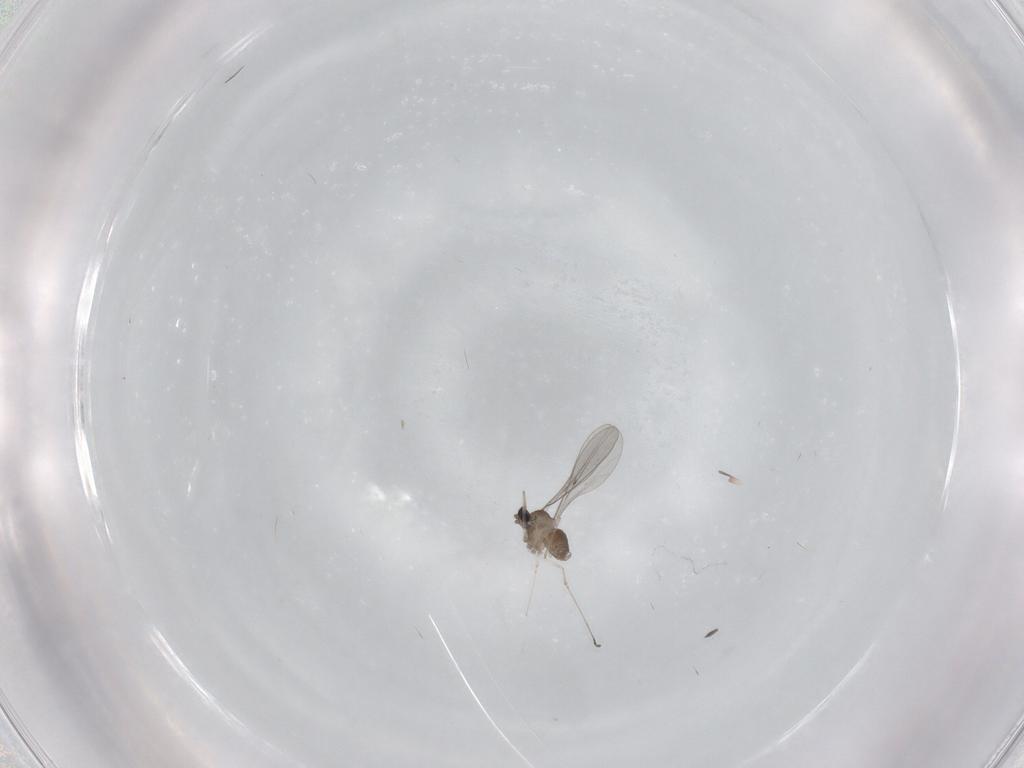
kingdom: Animalia
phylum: Arthropoda
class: Insecta
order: Diptera
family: Cecidomyiidae
